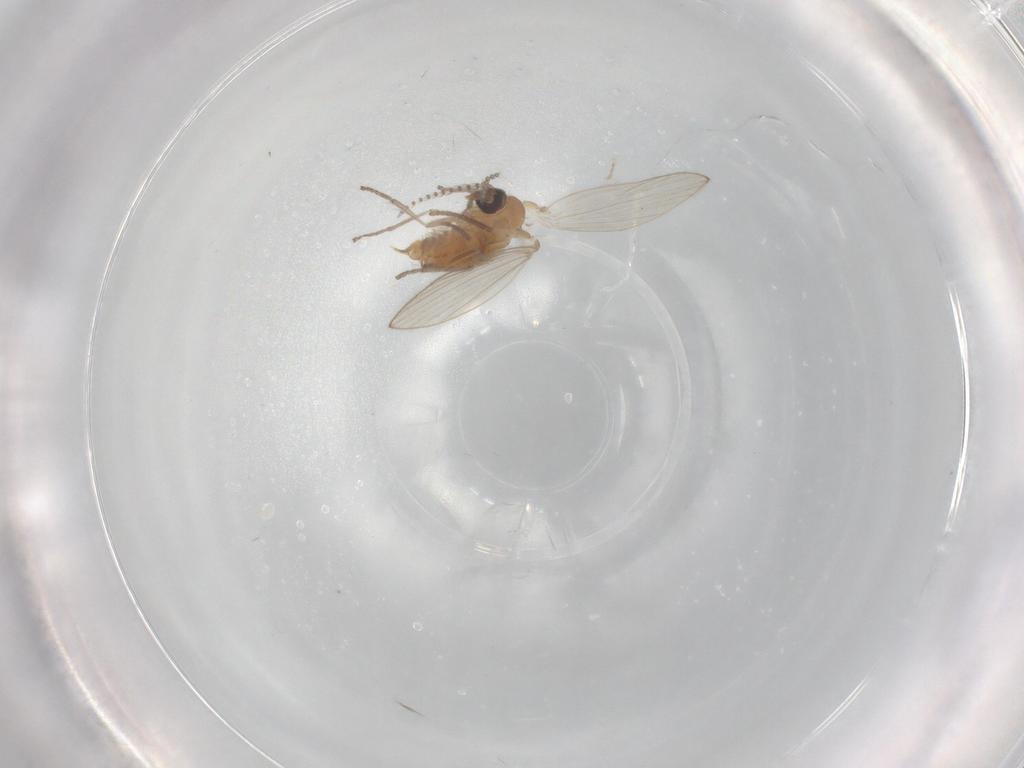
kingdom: Animalia
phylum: Arthropoda
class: Insecta
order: Diptera
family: Psychodidae
